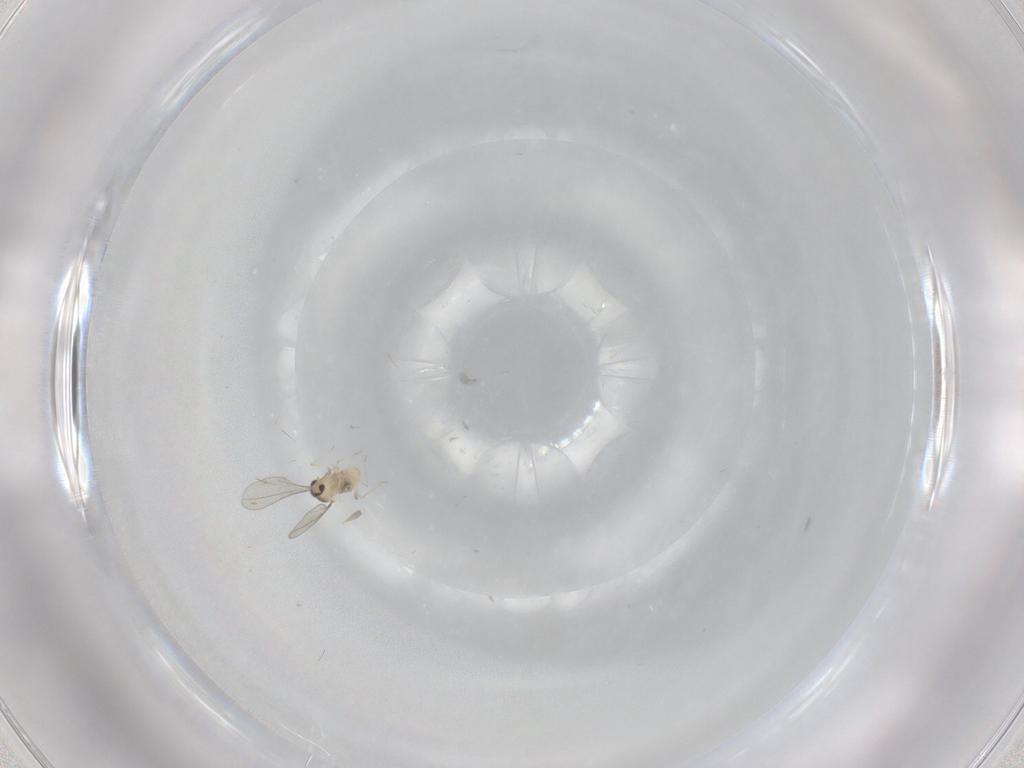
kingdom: Animalia
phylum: Arthropoda
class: Insecta
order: Diptera
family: Cecidomyiidae
